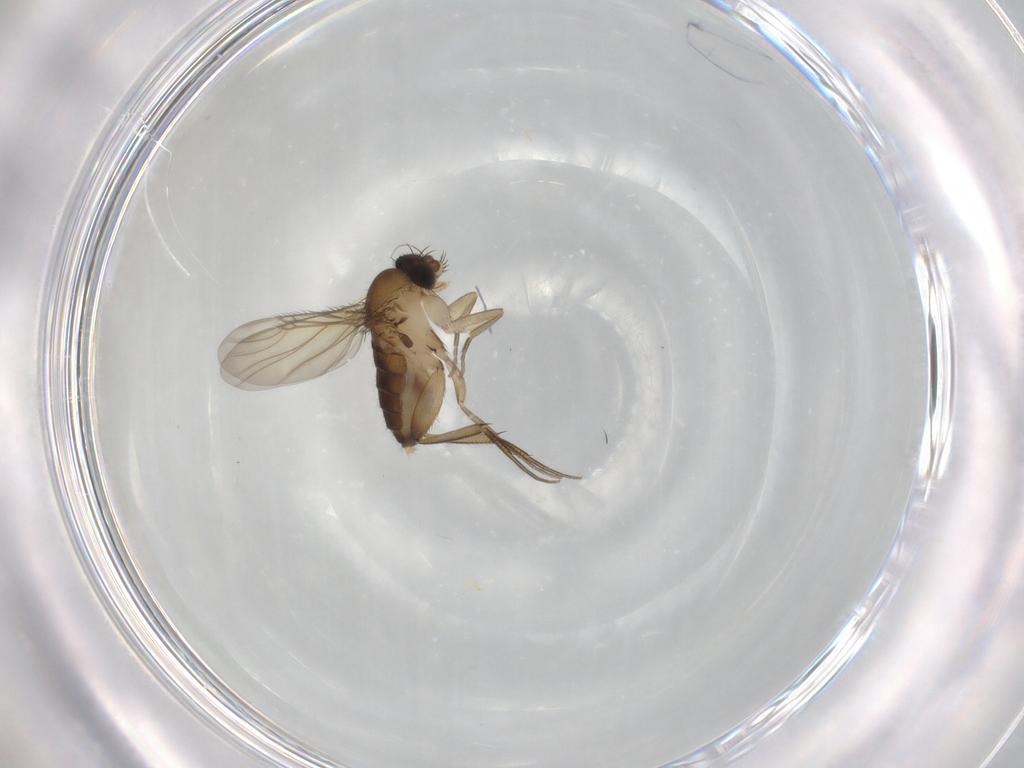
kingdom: Animalia
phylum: Arthropoda
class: Insecta
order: Diptera
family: Phoridae
